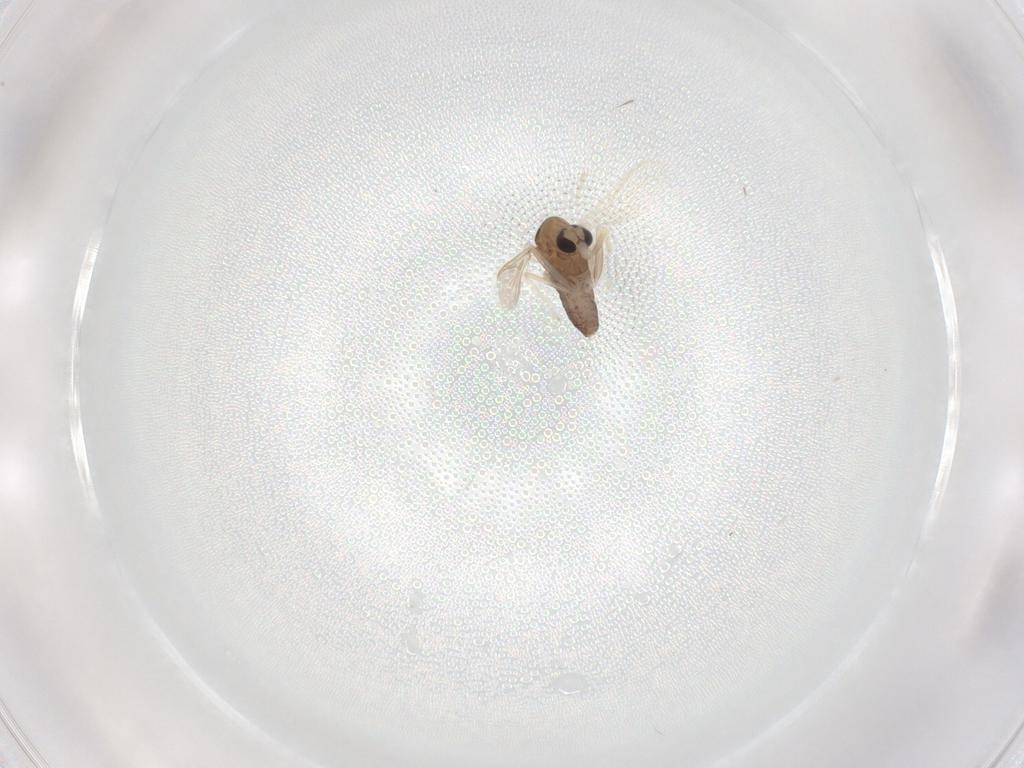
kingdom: Animalia
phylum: Arthropoda
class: Insecta
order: Diptera
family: Chironomidae
